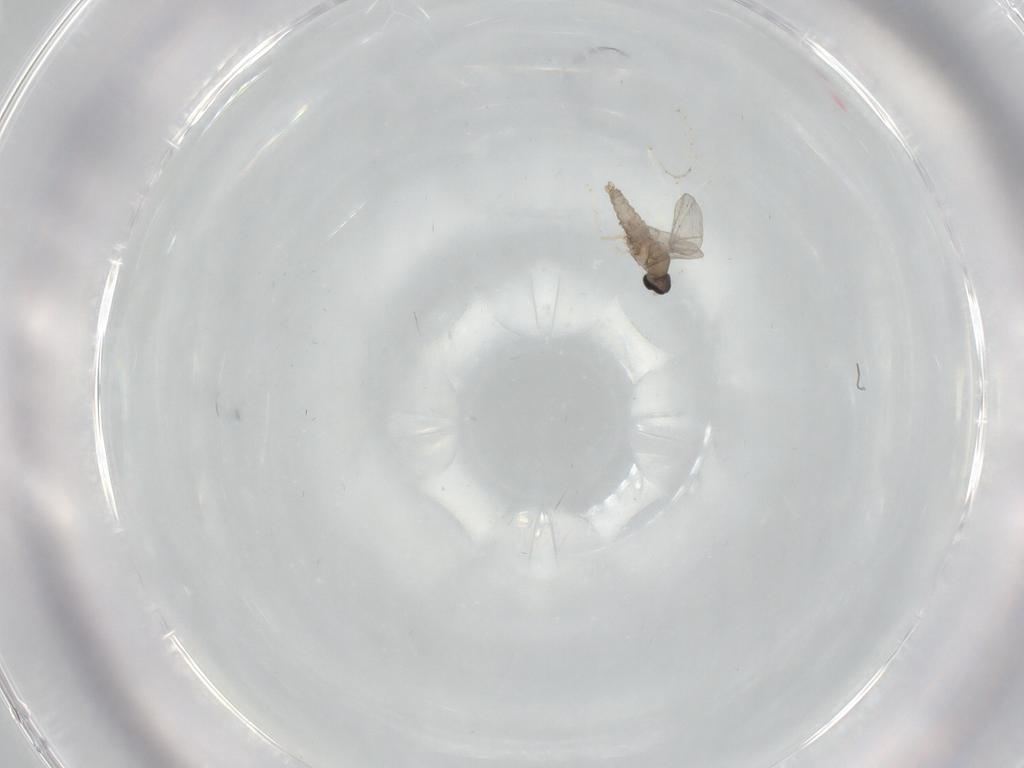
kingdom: Animalia
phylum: Arthropoda
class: Insecta
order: Diptera
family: Cecidomyiidae
